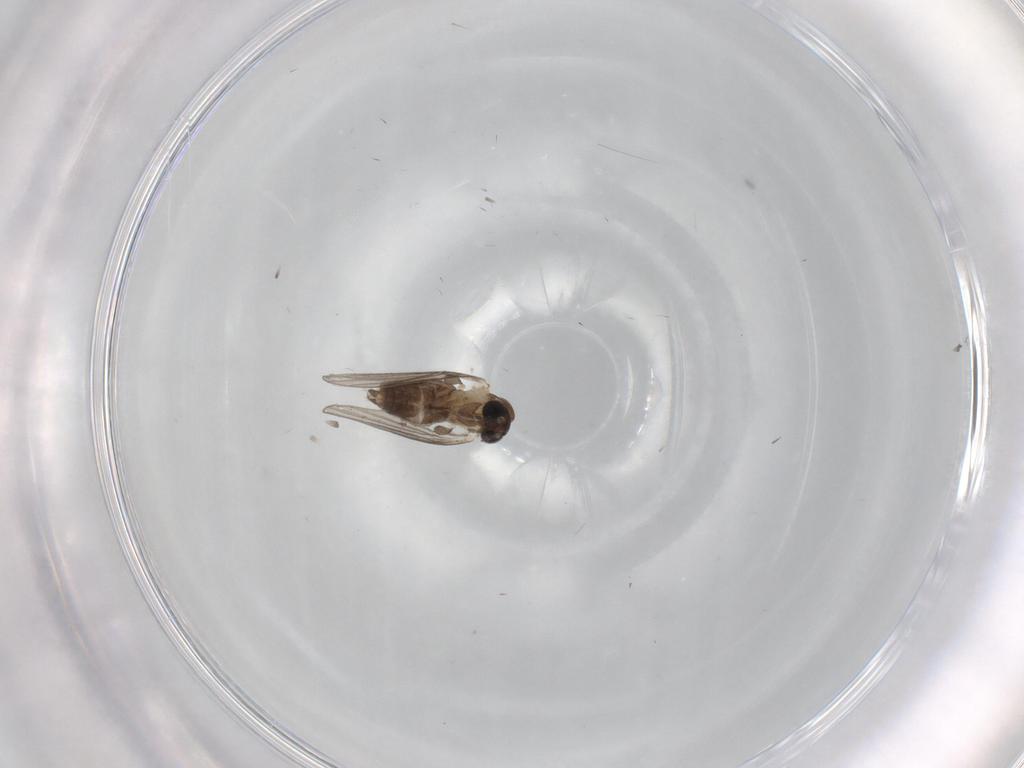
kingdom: Animalia
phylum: Arthropoda
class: Insecta
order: Diptera
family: Psychodidae
